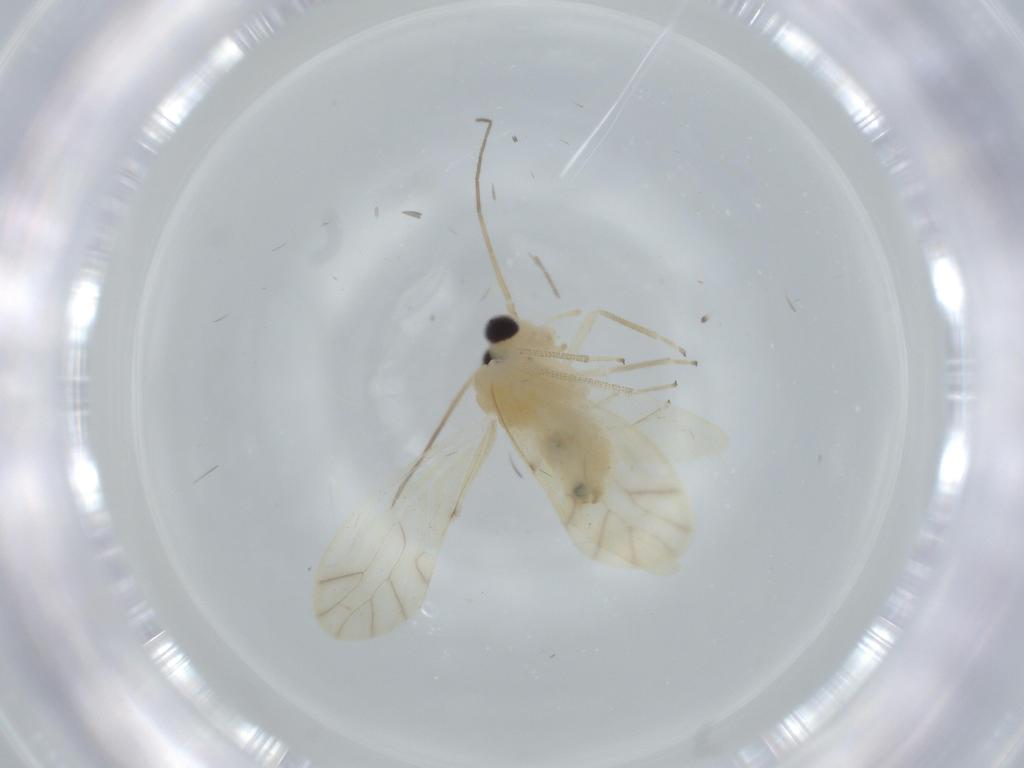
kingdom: Animalia
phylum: Arthropoda
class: Insecta
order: Psocodea
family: Caeciliusidae
